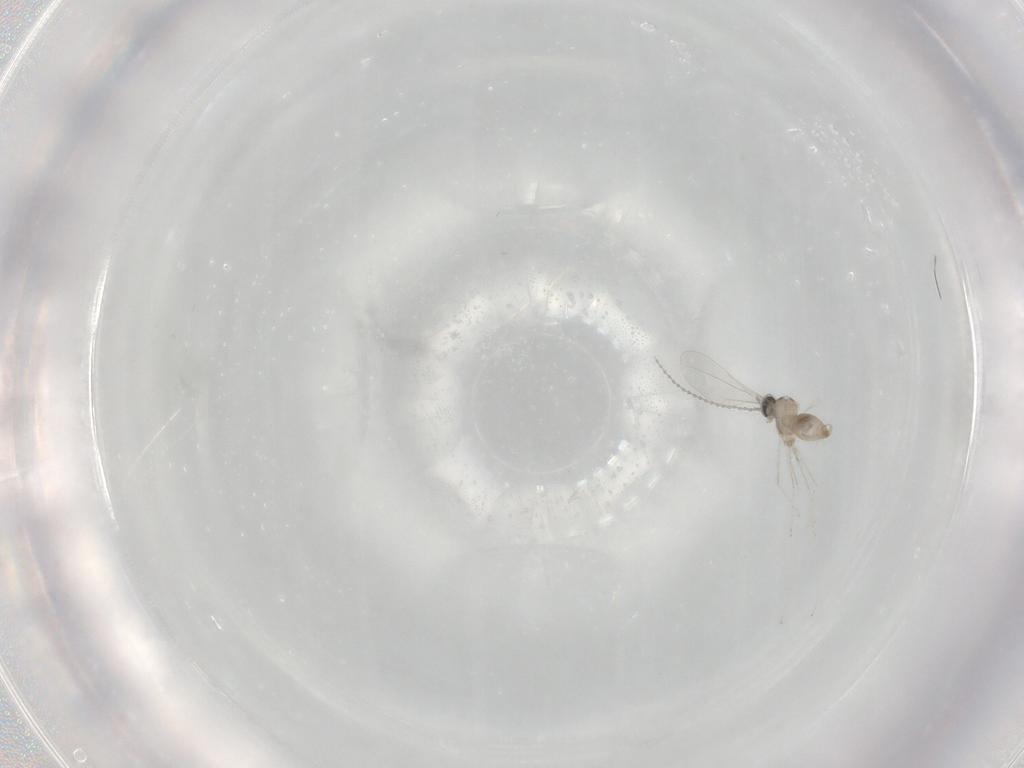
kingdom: Animalia
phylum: Arthropoda
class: Insecta
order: Diptera
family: Cecidomyiidae
